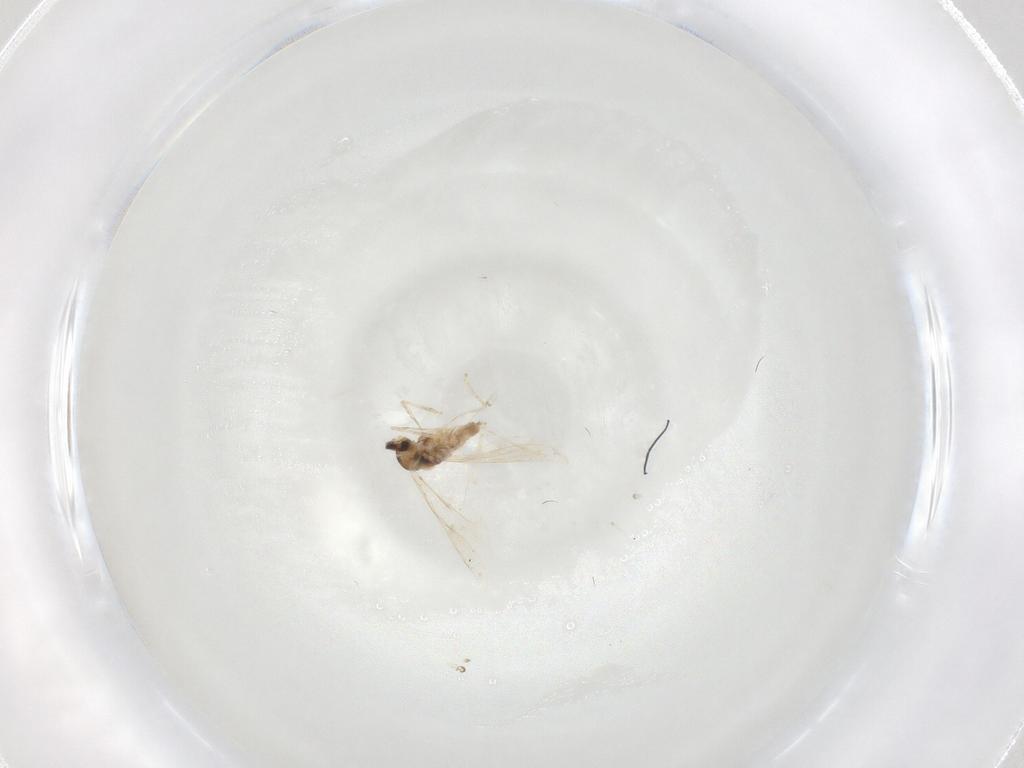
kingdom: Animalia
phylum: Arthropoda
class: Insecta
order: Diptera
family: Cecidomyiidae
